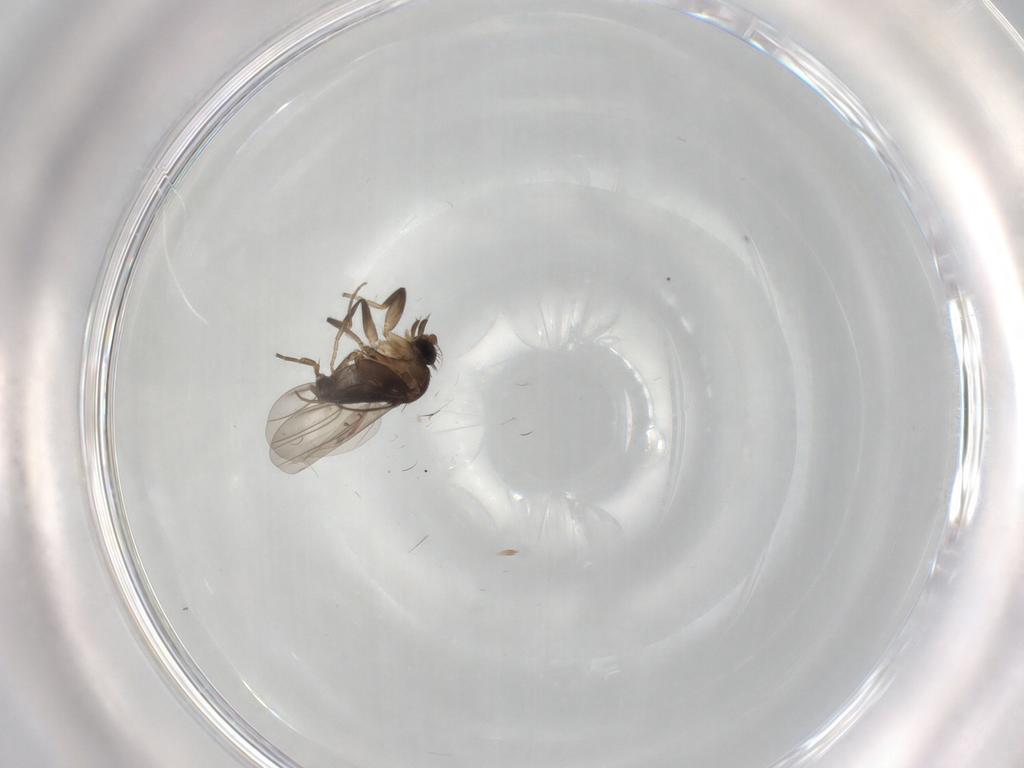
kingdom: Animalia
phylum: Arthropoda
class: Insecta
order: Diptera
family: Phoridae
